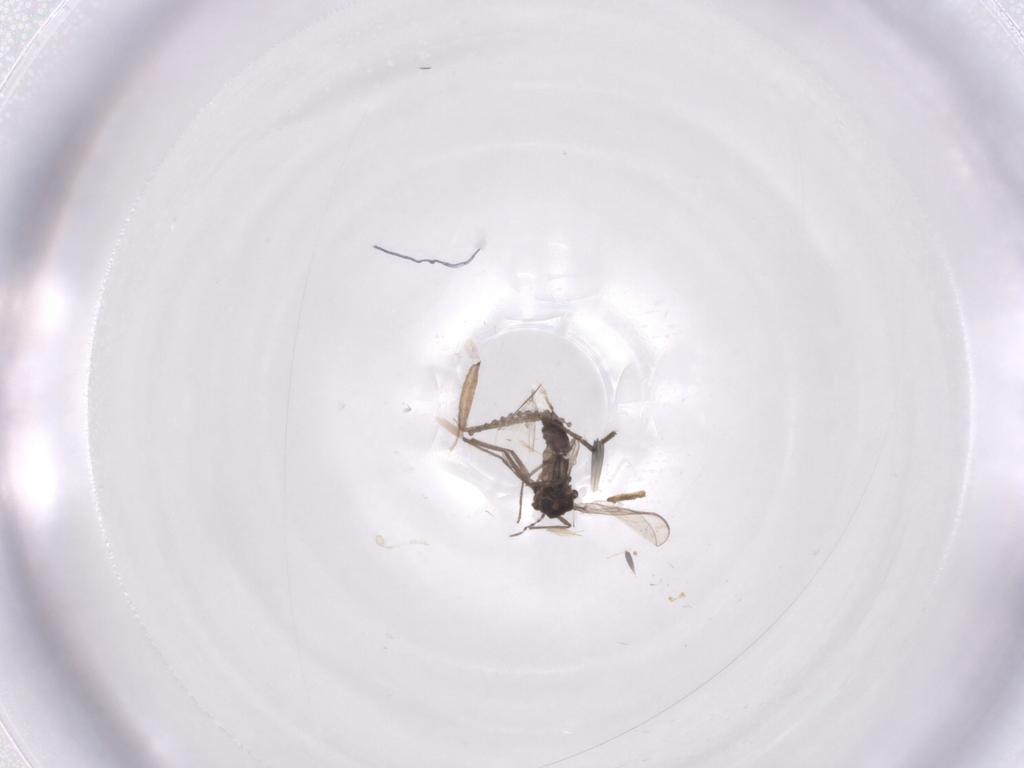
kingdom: Animalia
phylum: Arthropoda
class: Insecta
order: Diptera
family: Chironomidae
